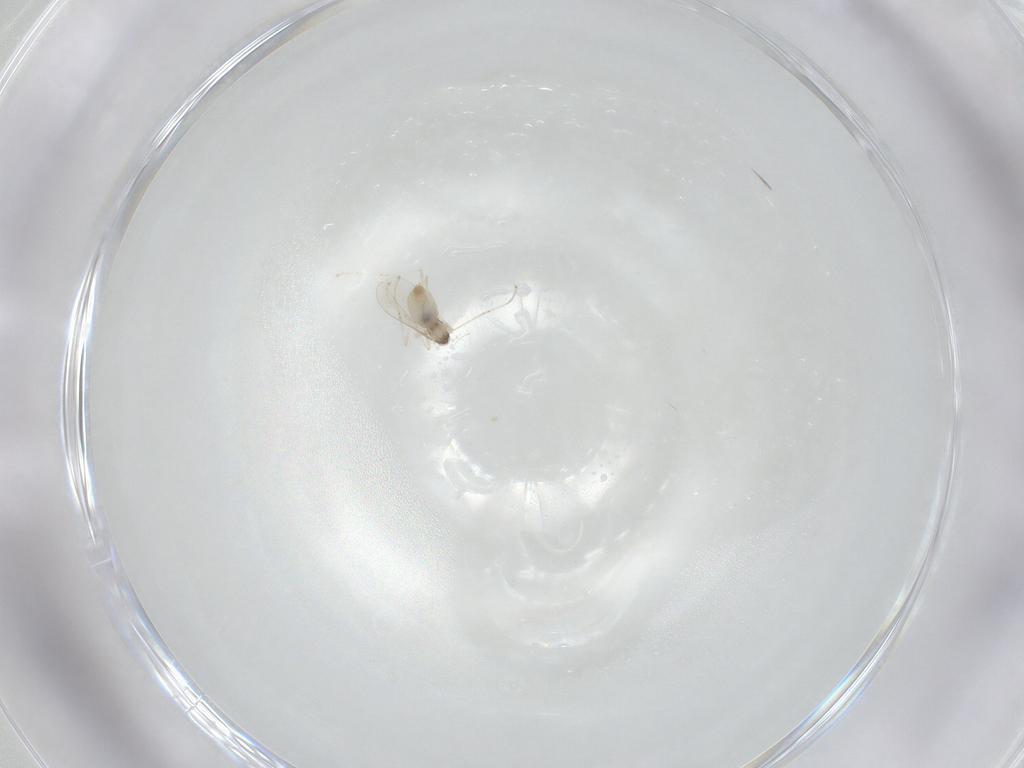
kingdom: Animalia
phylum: Arthropoda
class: Insecta
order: Diptera
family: Cecidomyiidae
